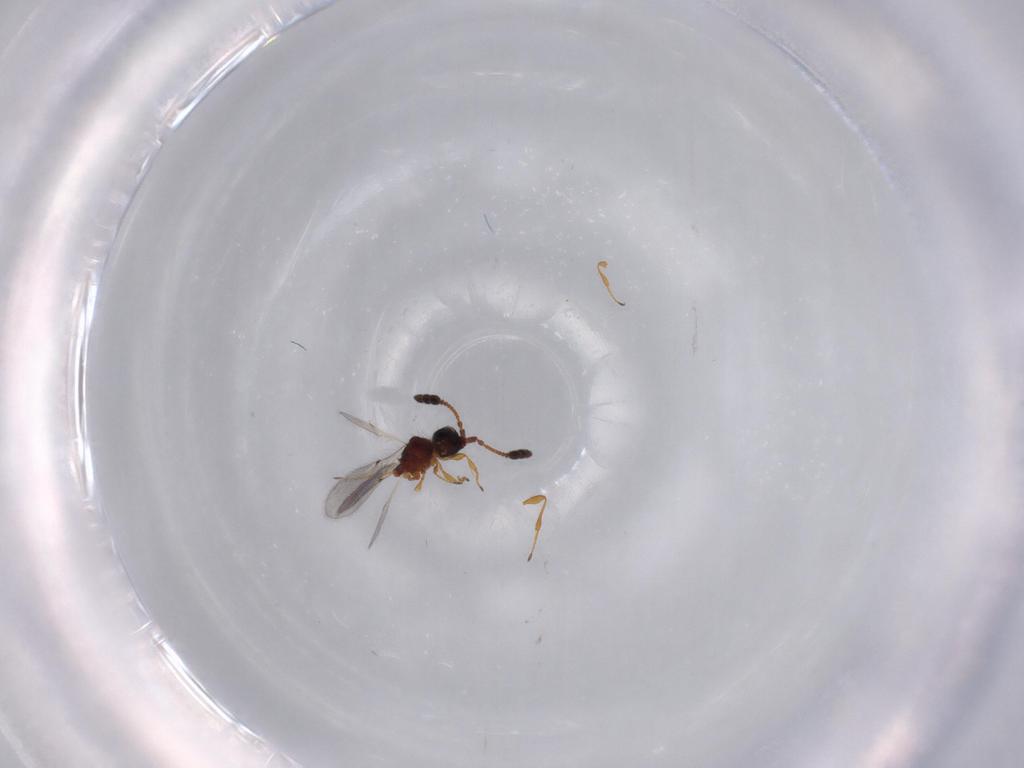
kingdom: Animalia
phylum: Arthropoda
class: Insecta
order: Hymenoptera
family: Diapriidae
